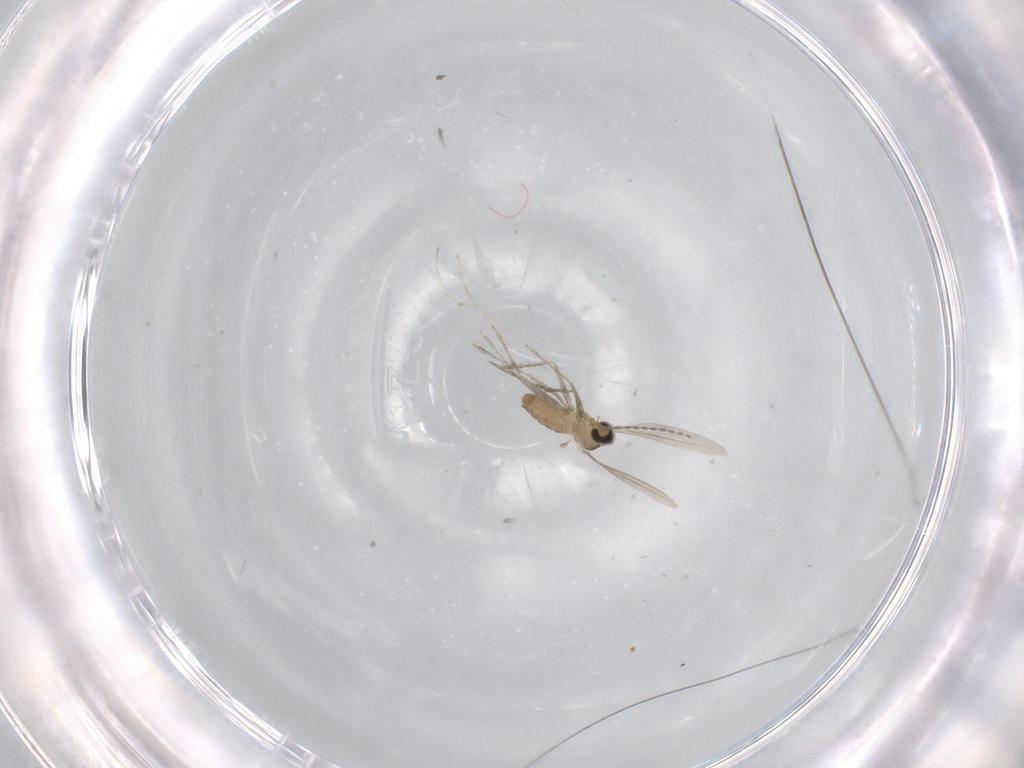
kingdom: Animalia
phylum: Arthropoda
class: Insecta
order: Diptera
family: Cecidomyiidae
